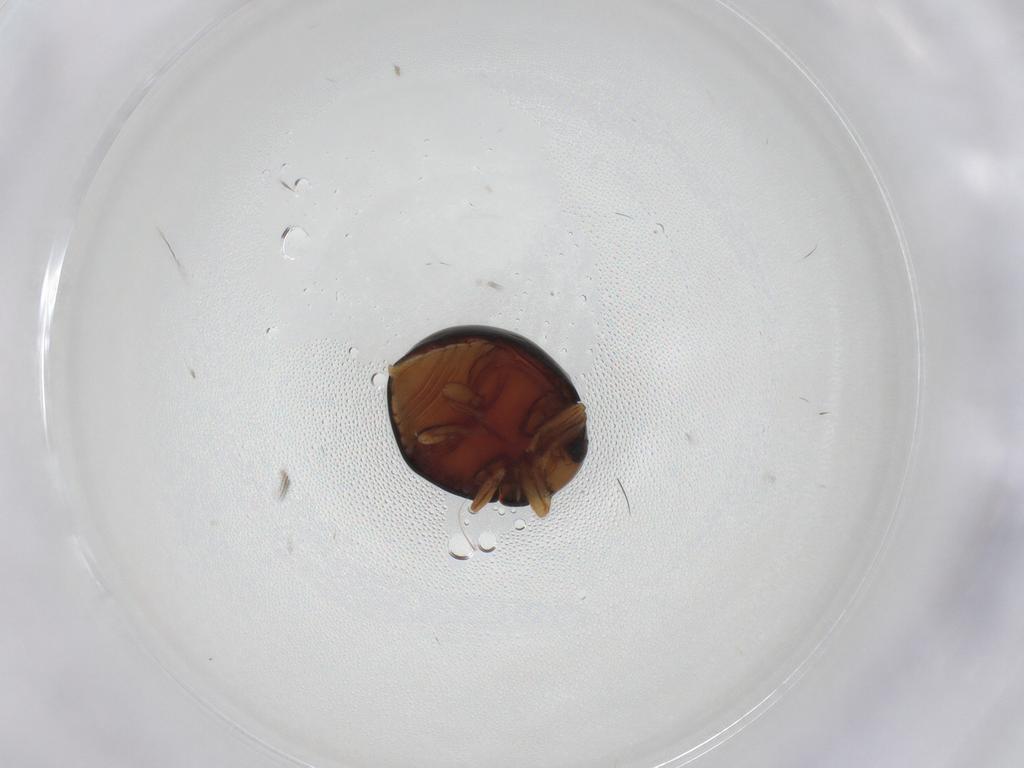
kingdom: Animalia
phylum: Arthropoda
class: Insecta
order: Coleoptera
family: Coccinellidae
